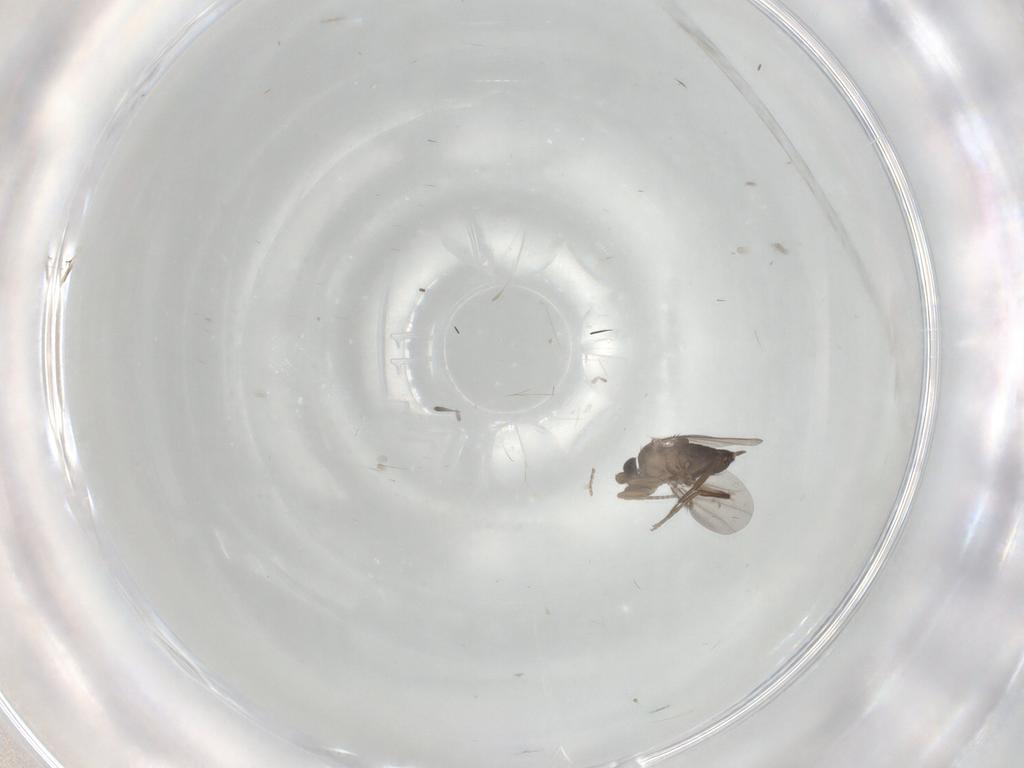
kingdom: Animalia
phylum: Arthropoda
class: Insecta
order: Diptera
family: Phoridae
